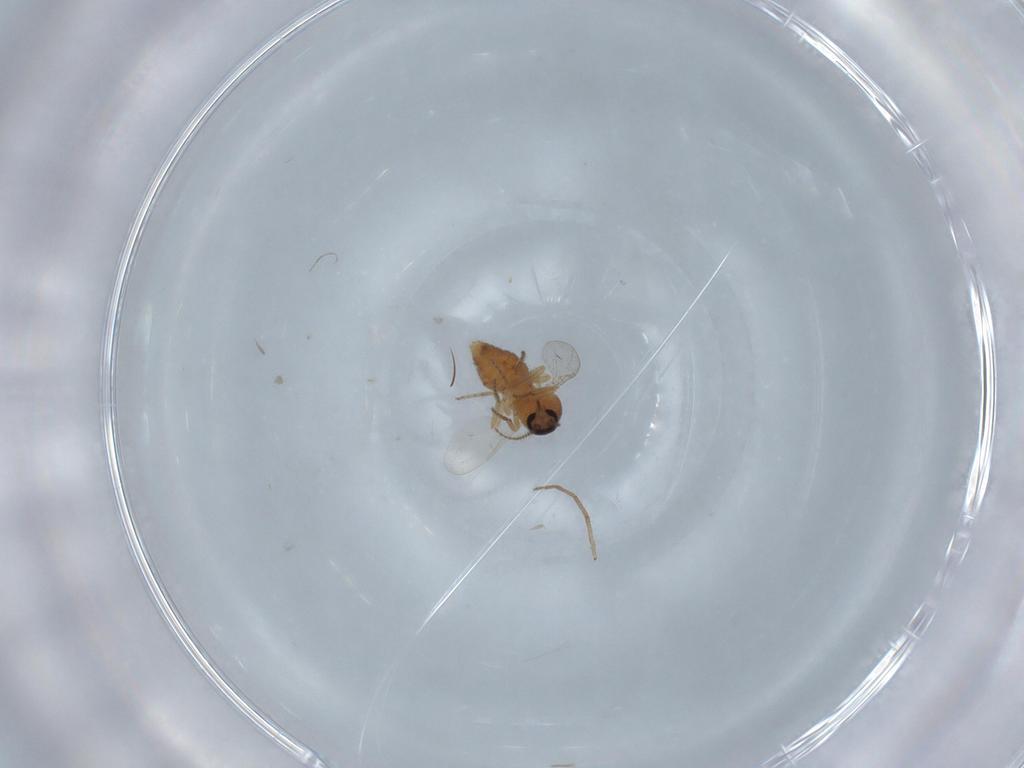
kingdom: Animalia
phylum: Arthropoda
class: Insecta
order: Diptera
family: Ceratopogonidae
